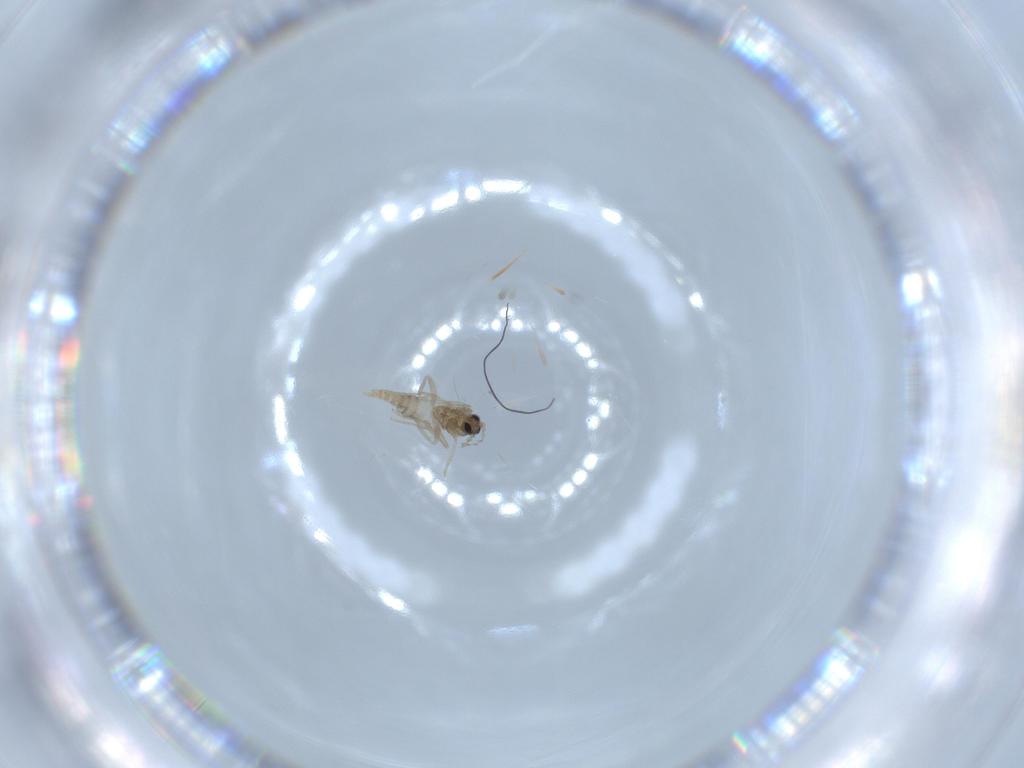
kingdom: Animalia
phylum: Arthropoda
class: Insecta
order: Diptera
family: Cecidomyiidae
